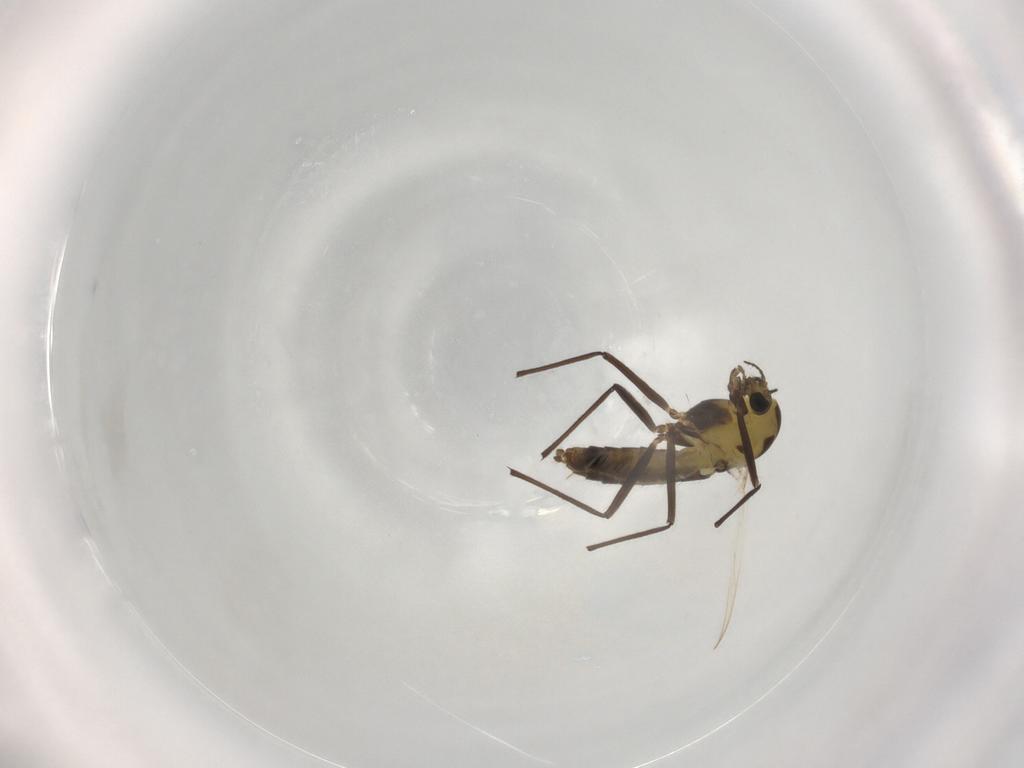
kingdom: Animalia
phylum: Arthropoda
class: Insecta
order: Diptera
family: Chironomidae
